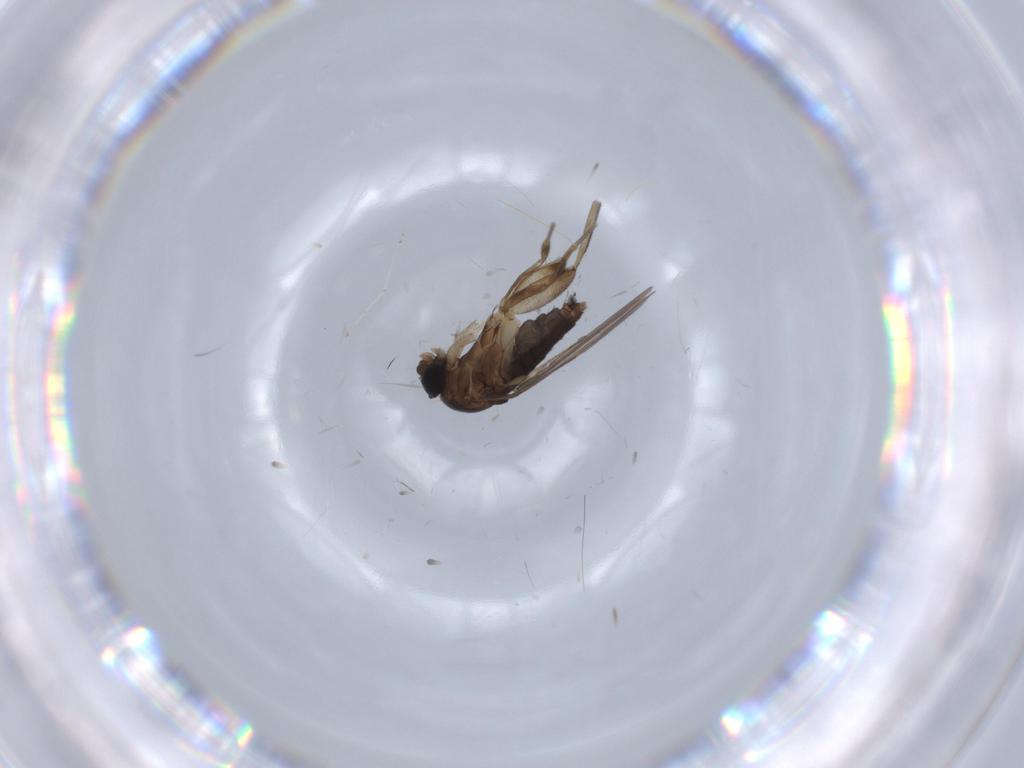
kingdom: Animalia
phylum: Arthropoda
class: Insecta
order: Diptera
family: Phoridae
